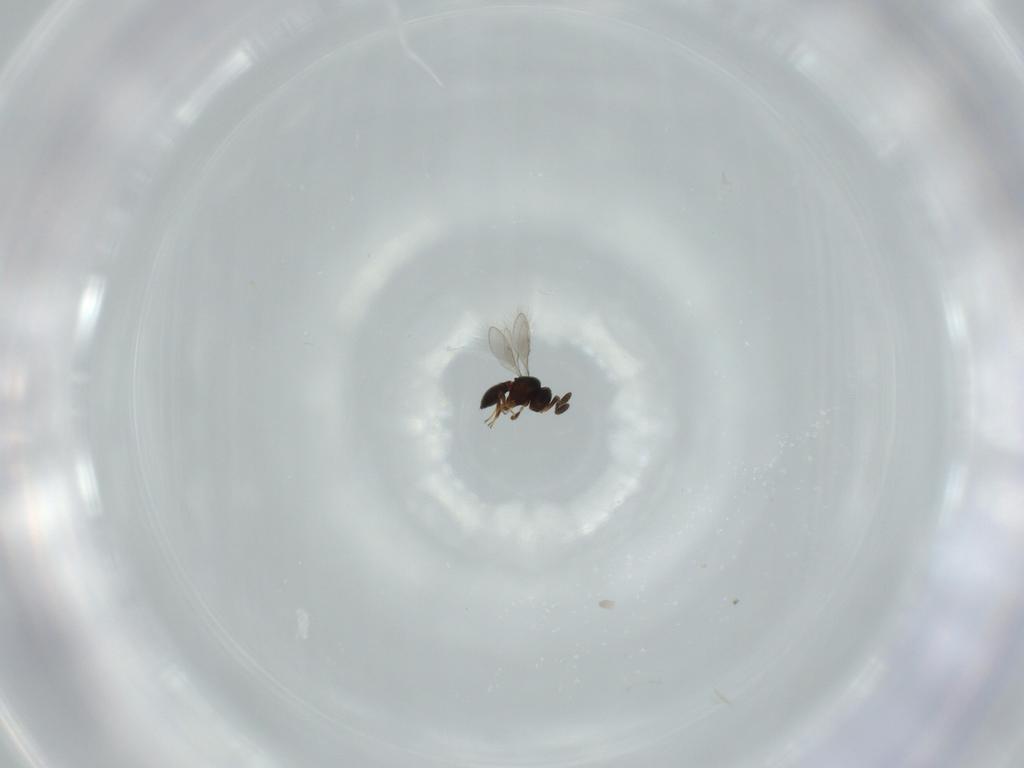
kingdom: Animalia
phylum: Arthropoda
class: Insecta
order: Hymenoptera
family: Scelionidae
